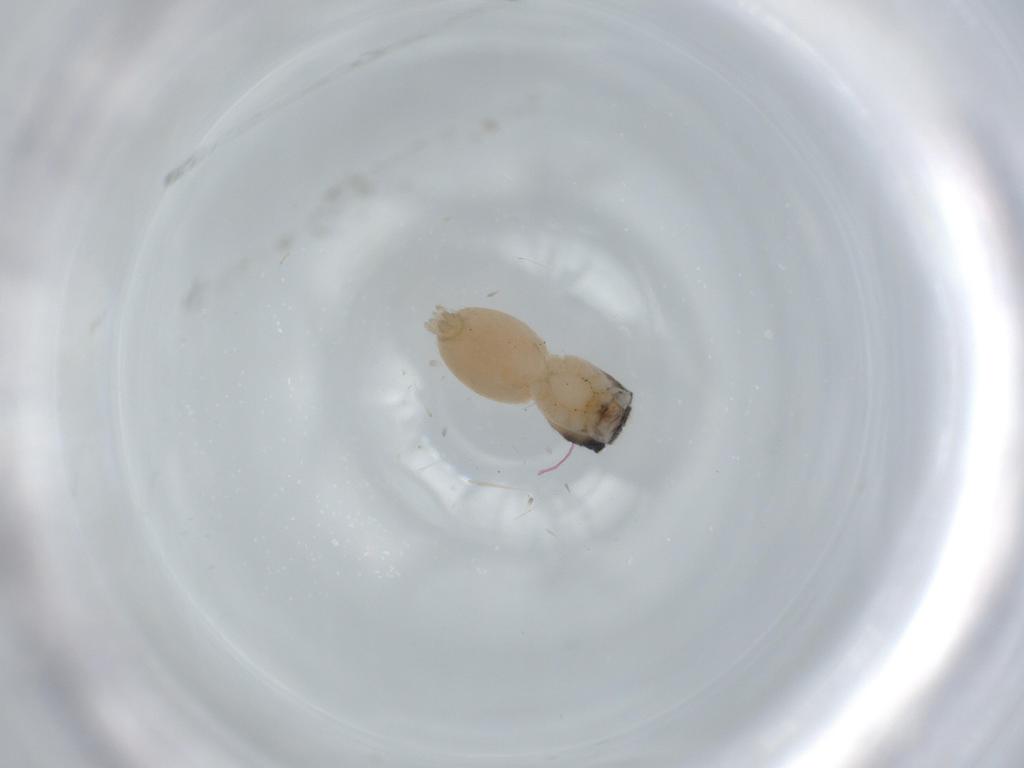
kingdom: Animalia
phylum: Arthropoda
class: Arachnida
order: Araneae
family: Salticidae
